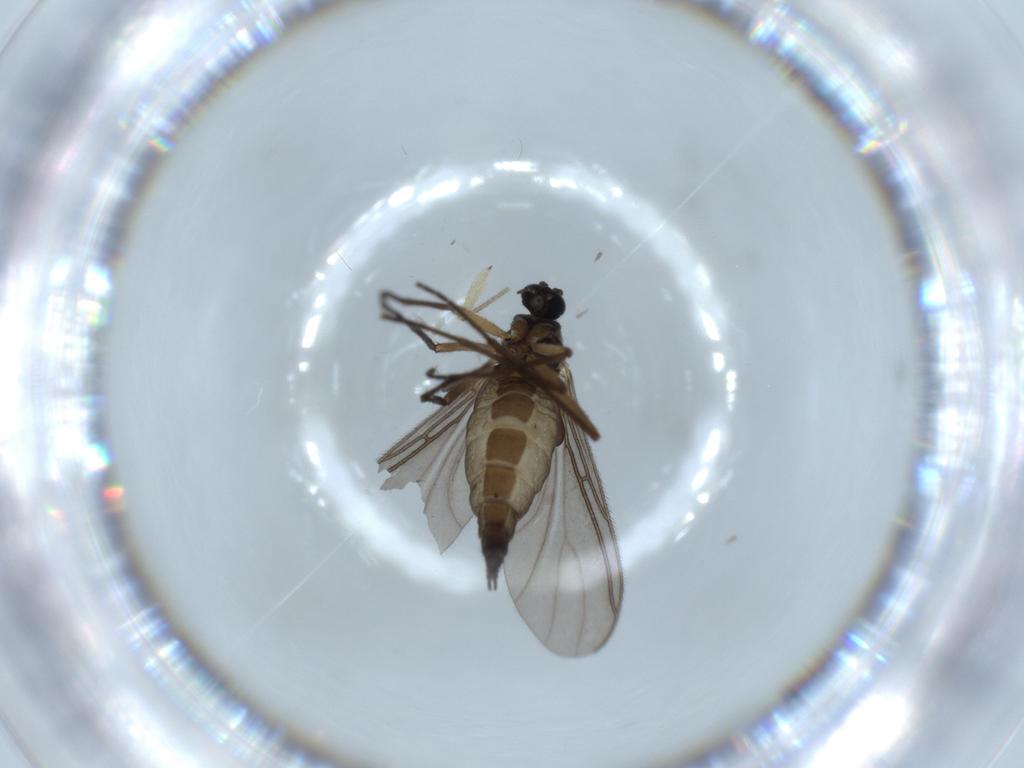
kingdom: Animalia
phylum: Arthropoda
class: Insecta
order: Diptera
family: Sciaridae
